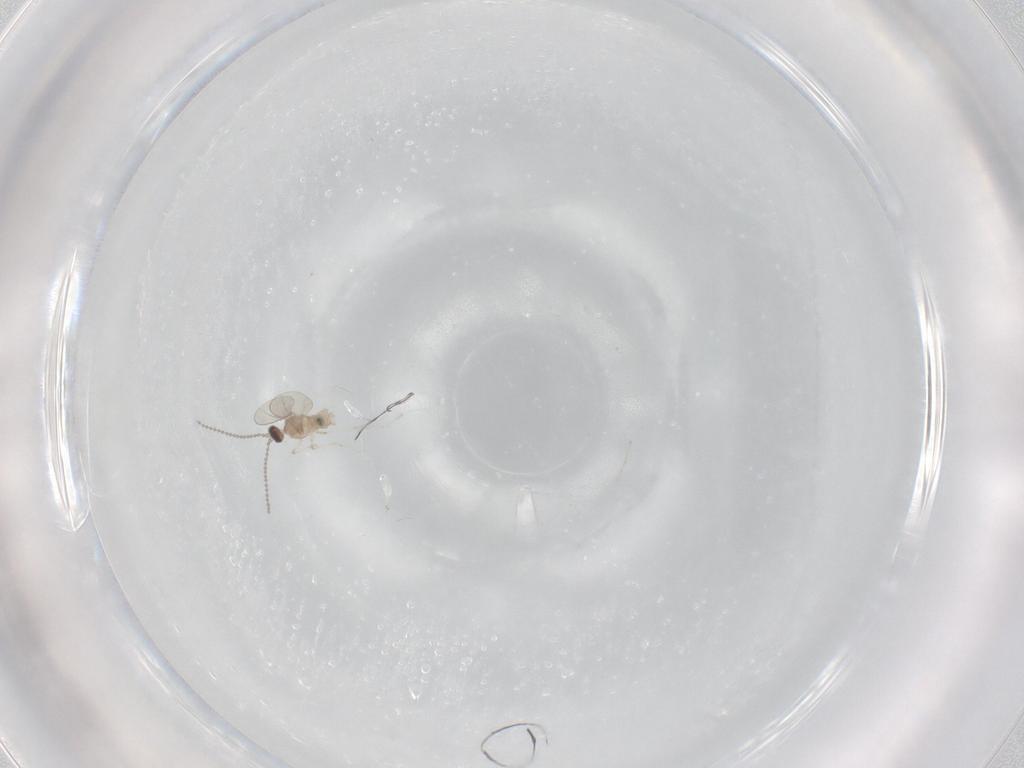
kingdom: Animalia
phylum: Arthropoda
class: Insecta
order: Diptera
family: Cecidomyiidae
